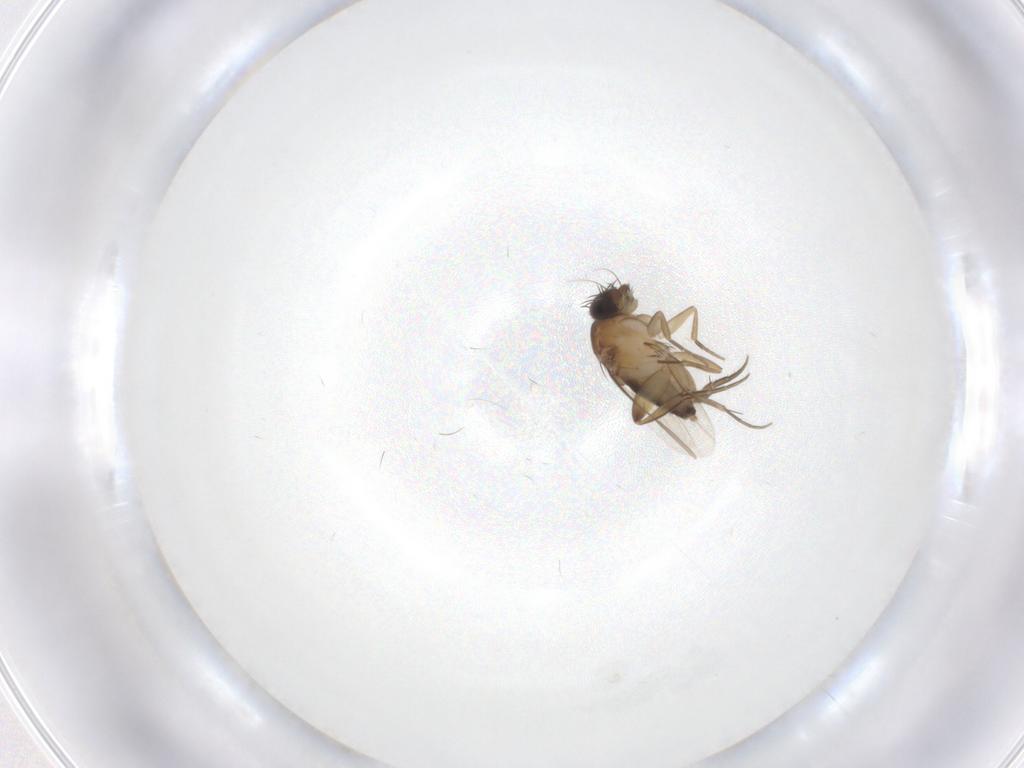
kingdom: Animalia
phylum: Arthropoda
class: Insecta
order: Diptera
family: Phoridae
